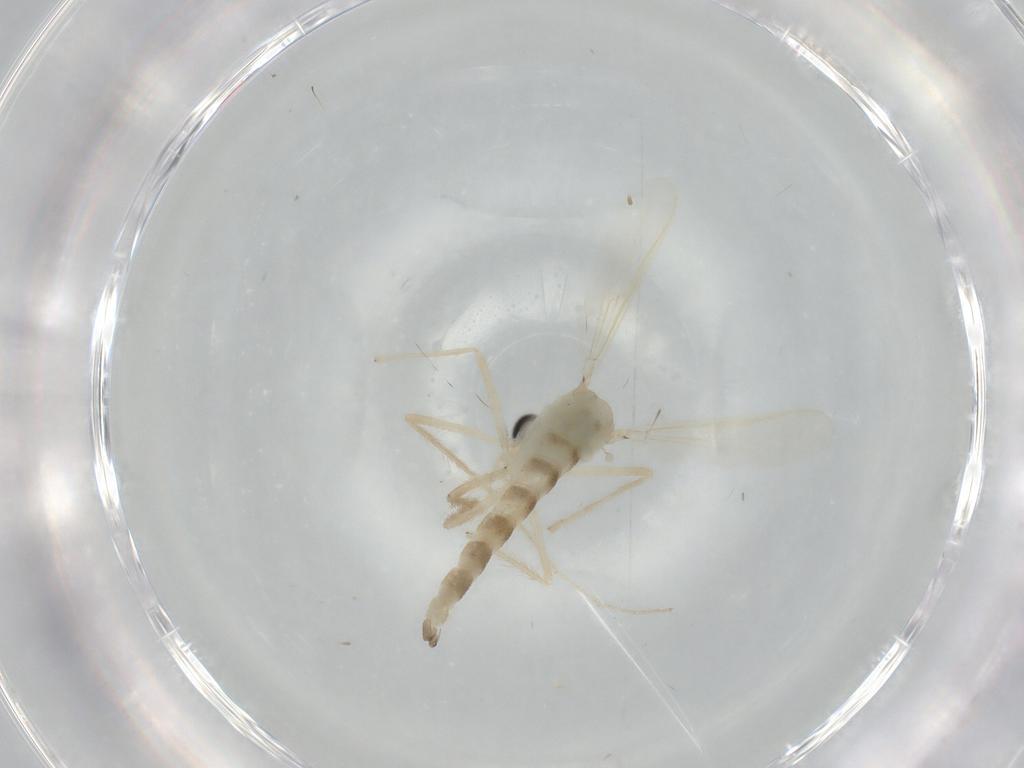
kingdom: Animalia
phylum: Arthropoda
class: Insecta
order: Diptera
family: Chironomidae
